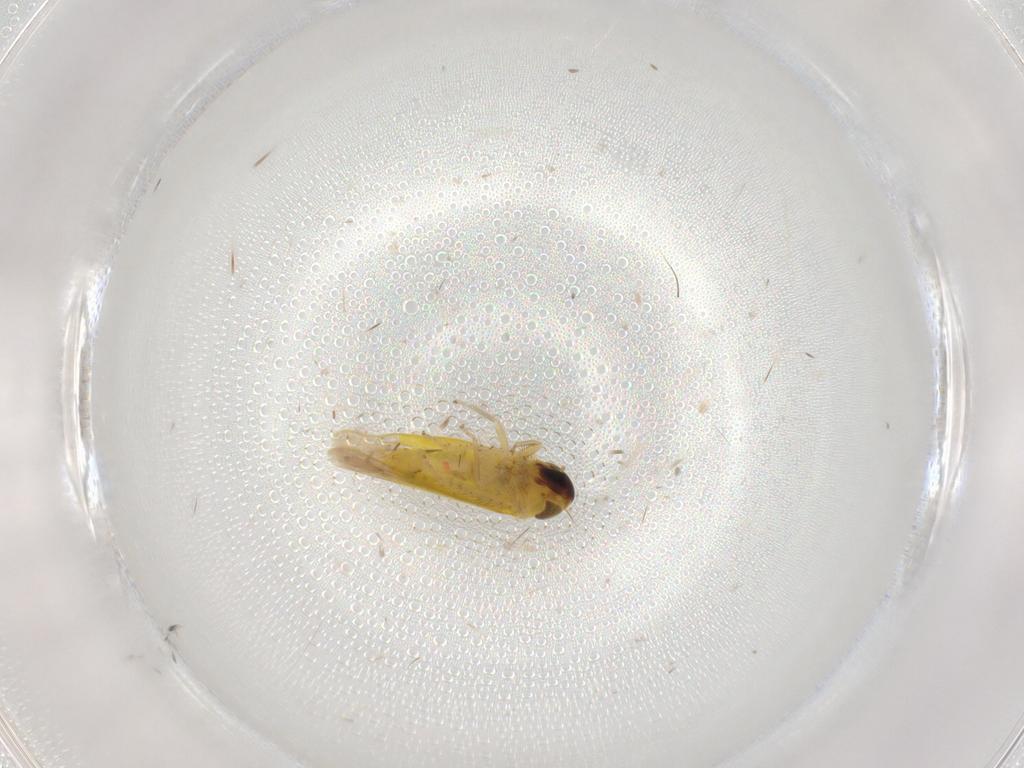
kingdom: Animalia
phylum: Arthropoda
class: Insecta
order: Hemiptera
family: Cicadellidae
